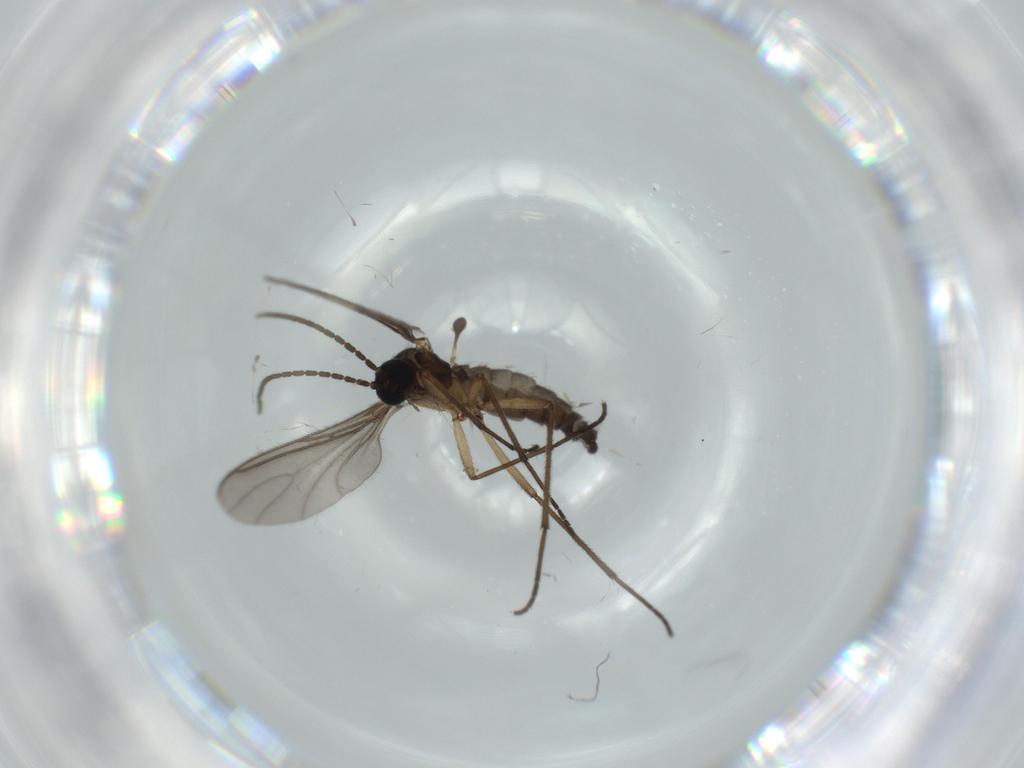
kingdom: Animalia
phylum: Arthropoda
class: Insecta
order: Diptera
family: Sciaridae
